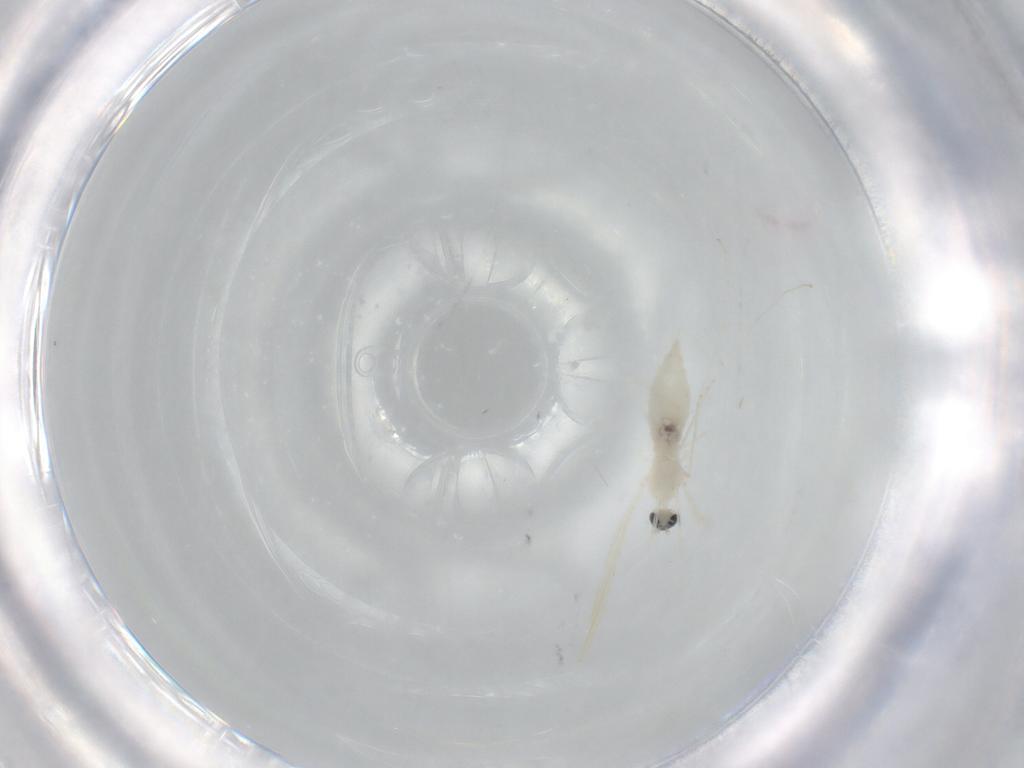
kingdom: Animalia
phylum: Arthropoda
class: Insecta
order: Diptera
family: Cecidomyiidae
